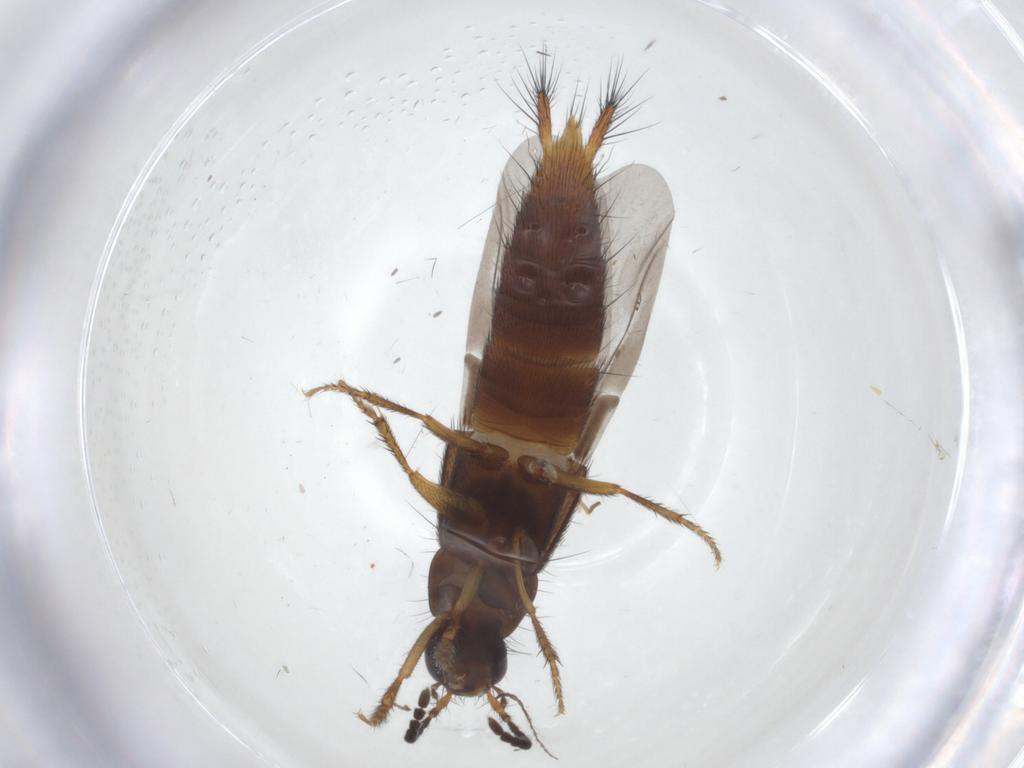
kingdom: Animalia
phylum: Arthropoda
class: Insecta
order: Coleoptera
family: Staphylinidae
